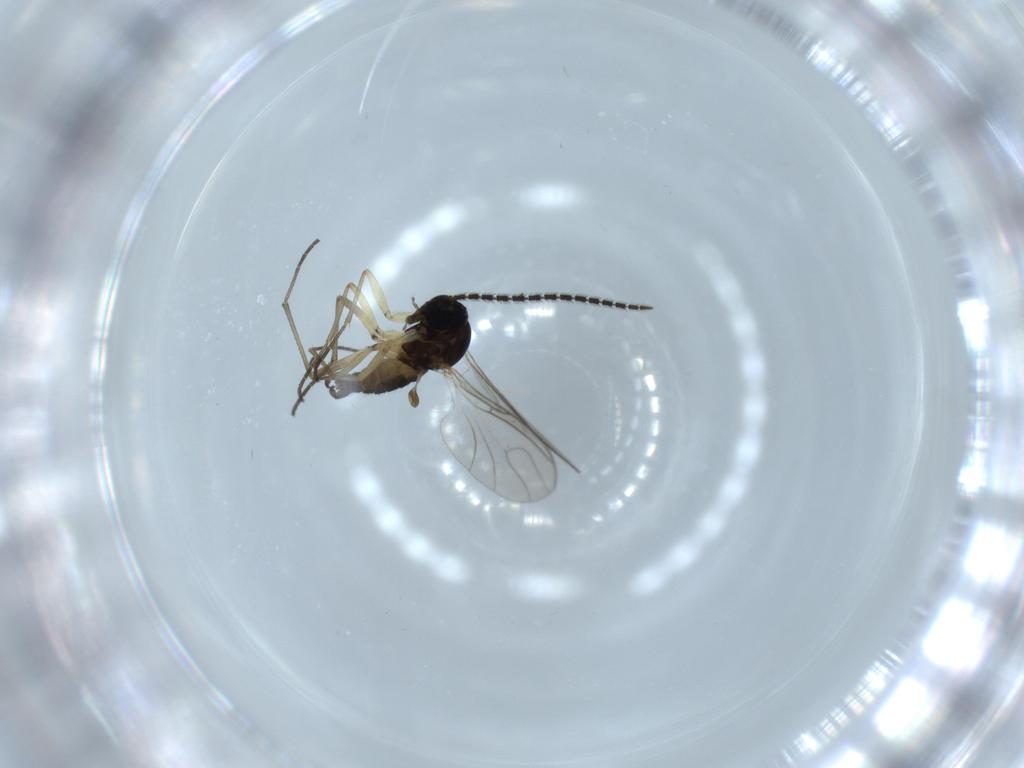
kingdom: Animalia
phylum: Arthropoda
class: Insecta
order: Diptera
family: Sciaridae
